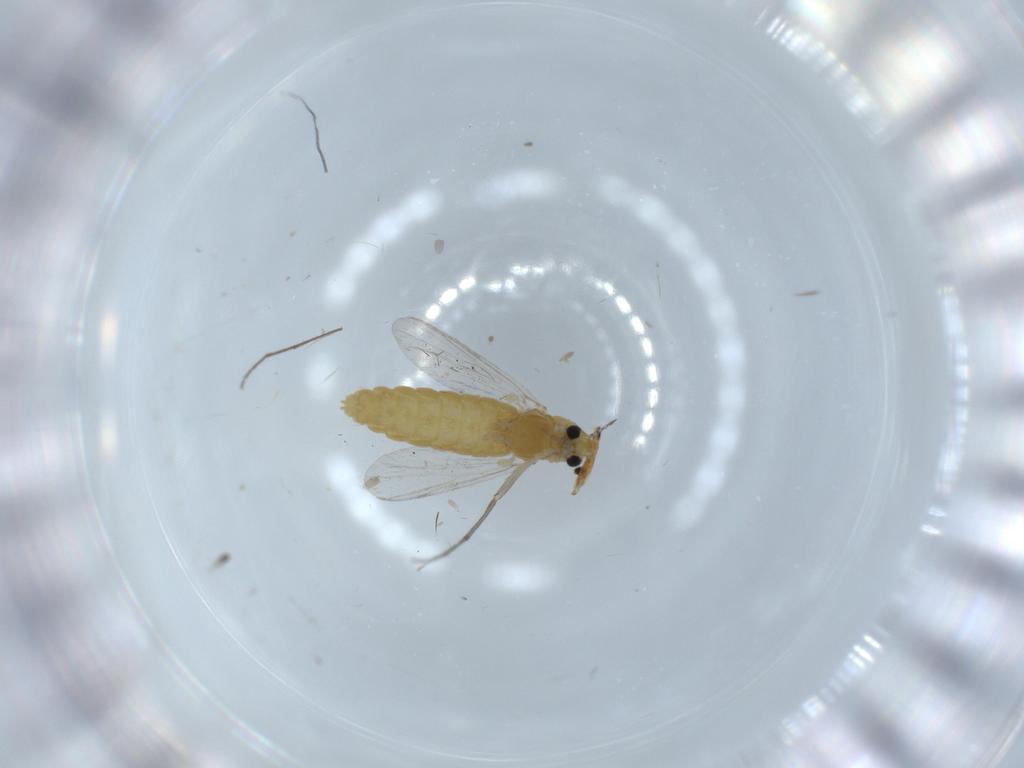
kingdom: Animalia
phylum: Arthropoda
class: Insecta
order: Diptera
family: Chironomidae
